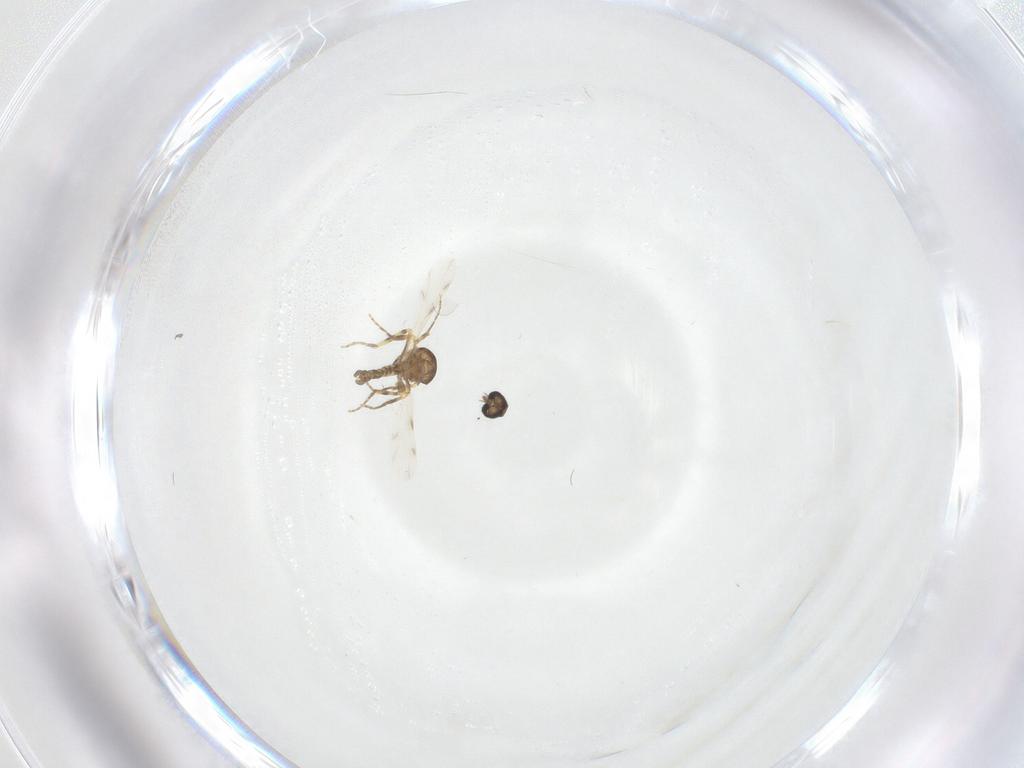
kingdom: Animalia
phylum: Arthropoda
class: Insecta
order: Diptera
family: Ceratopogonidae
